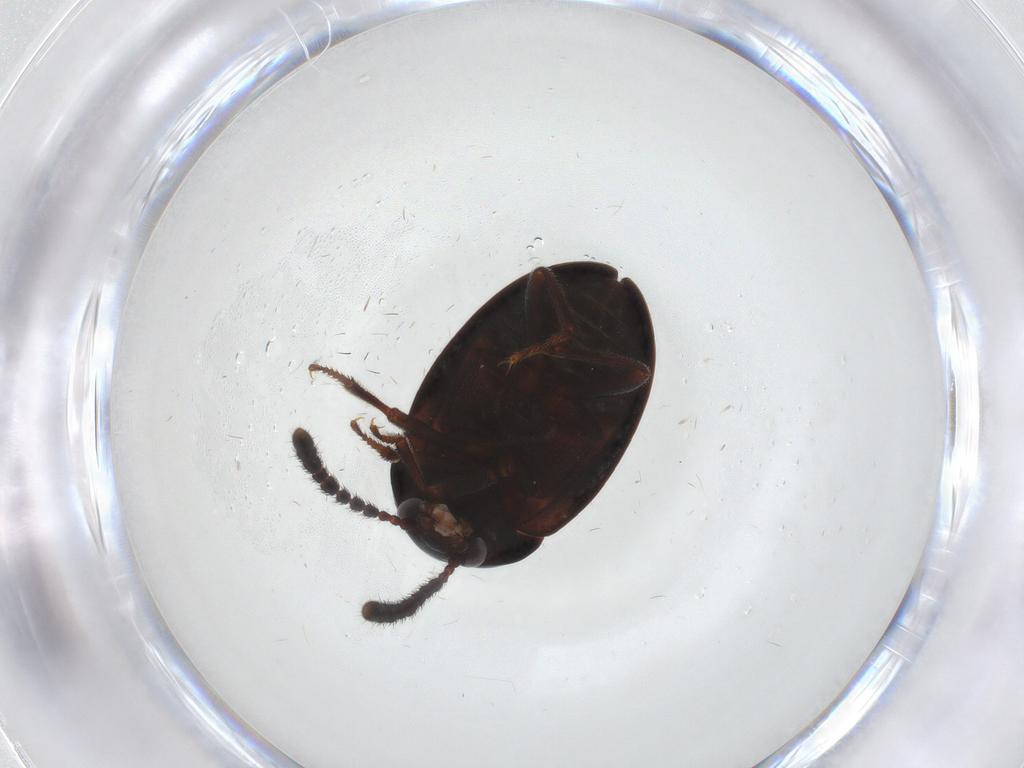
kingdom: Animalia
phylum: Arthropoda
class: Insecta
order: Coleoptera
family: Leiodidae
